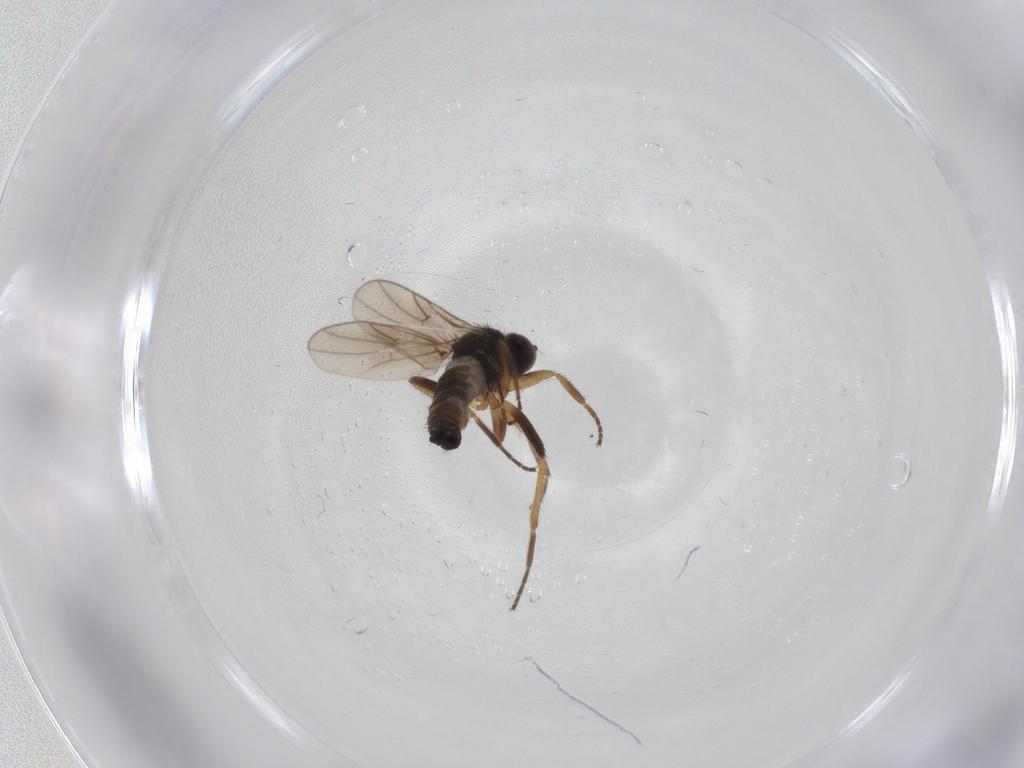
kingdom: Animalia
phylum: Arthropoda
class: Insecta
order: Diptera
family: Hybotidae
